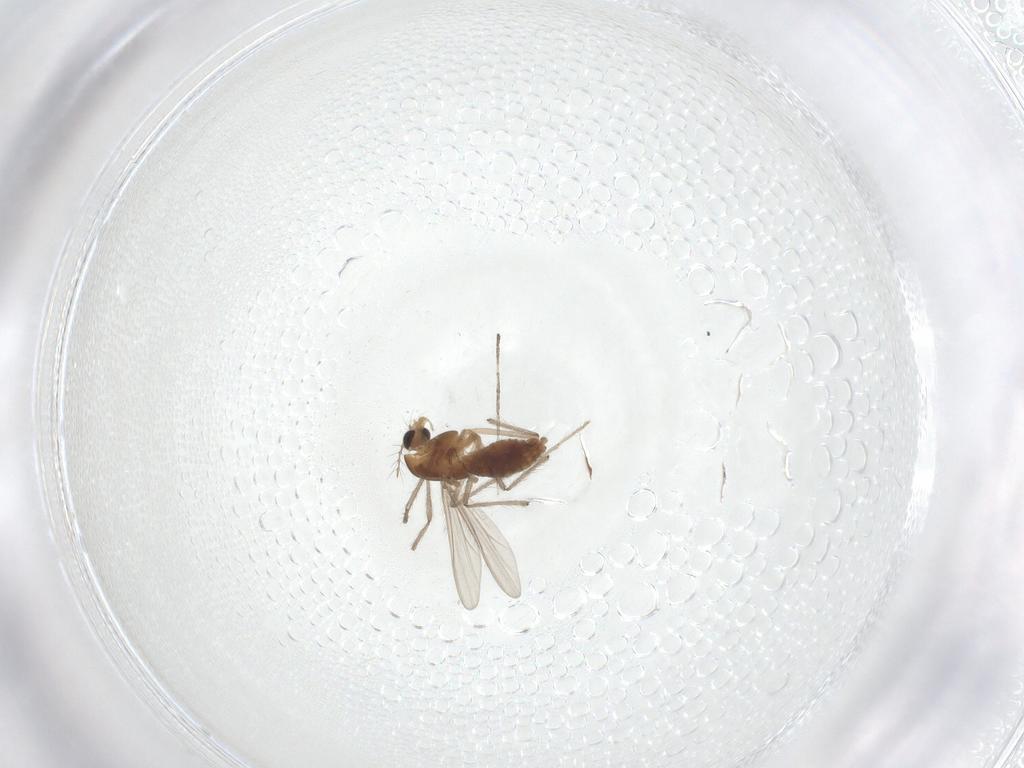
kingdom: Animalia
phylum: Arthropoda
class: Insecta
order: Diptera
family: Chironomidae
